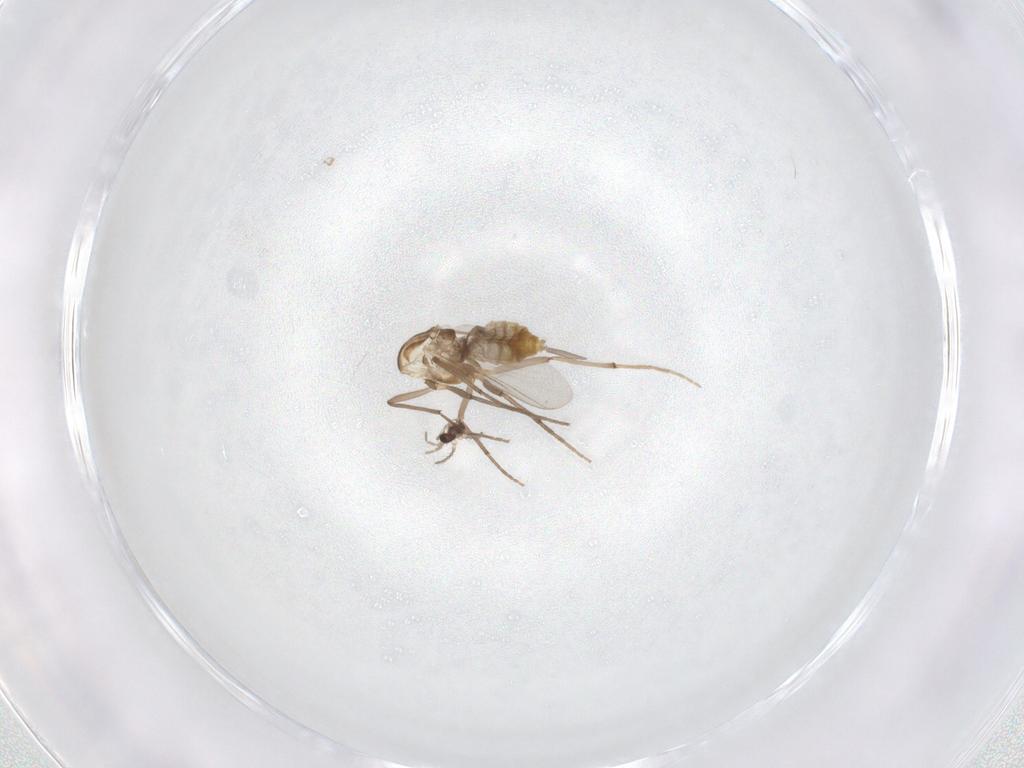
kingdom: Animalia
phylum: Arthropoda
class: Insecta
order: Diptera
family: Chironomidae
